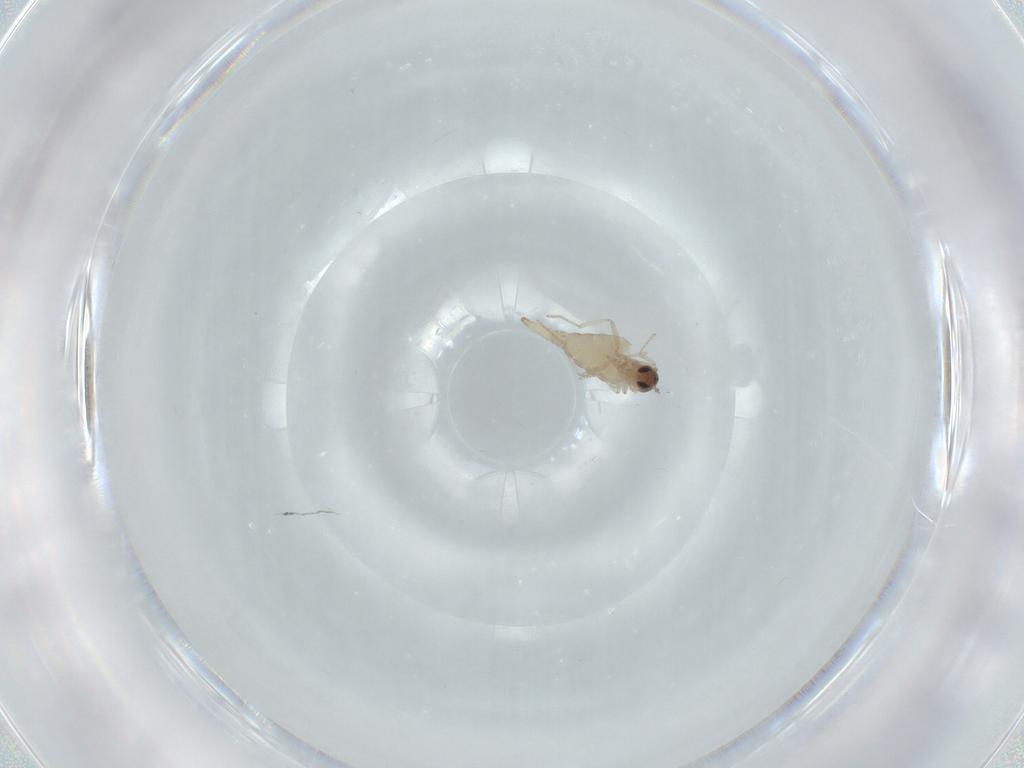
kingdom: Animalia
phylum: Arthropoda
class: Insecta
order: Diptera
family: Cecidomyiidae
